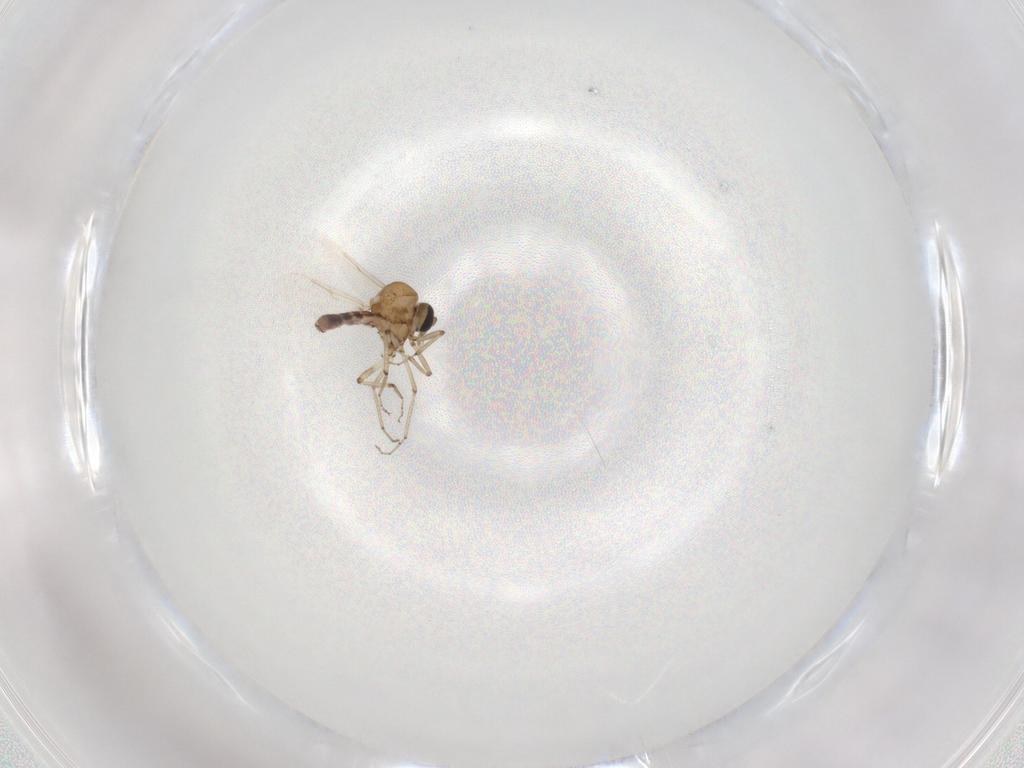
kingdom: Animalia
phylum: Arthropoda
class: Insecta
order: Diptera
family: Ceratopogonidae
